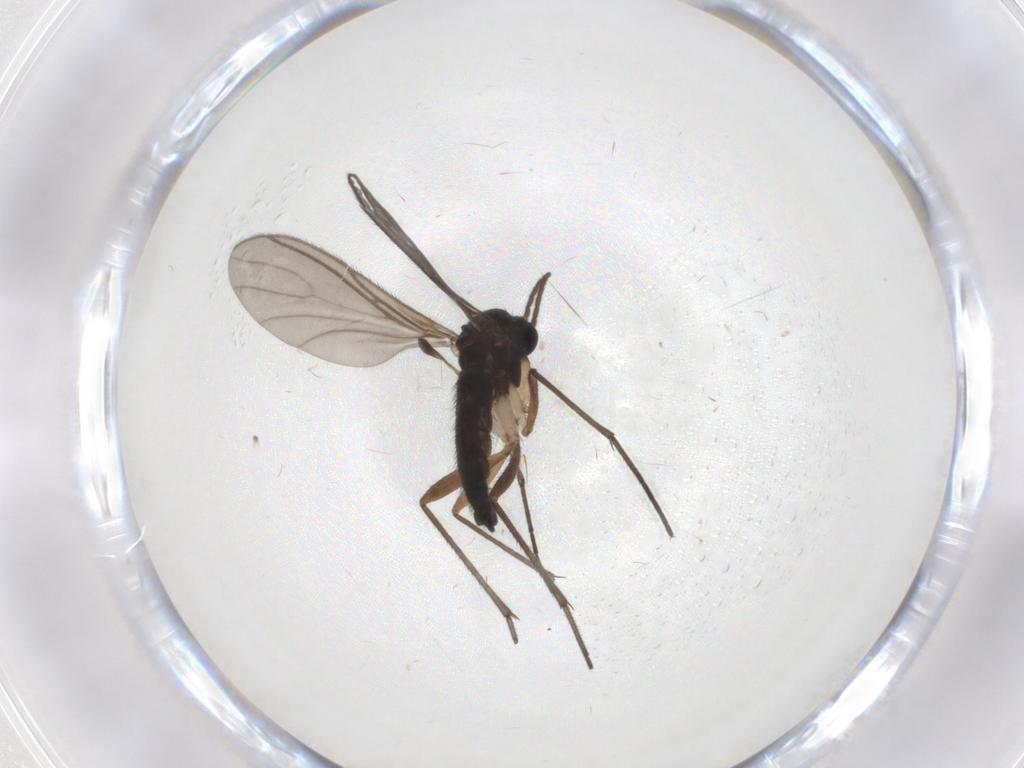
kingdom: Animalia
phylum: Arthropoda
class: Insecta
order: Diptera
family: Sciaridae
